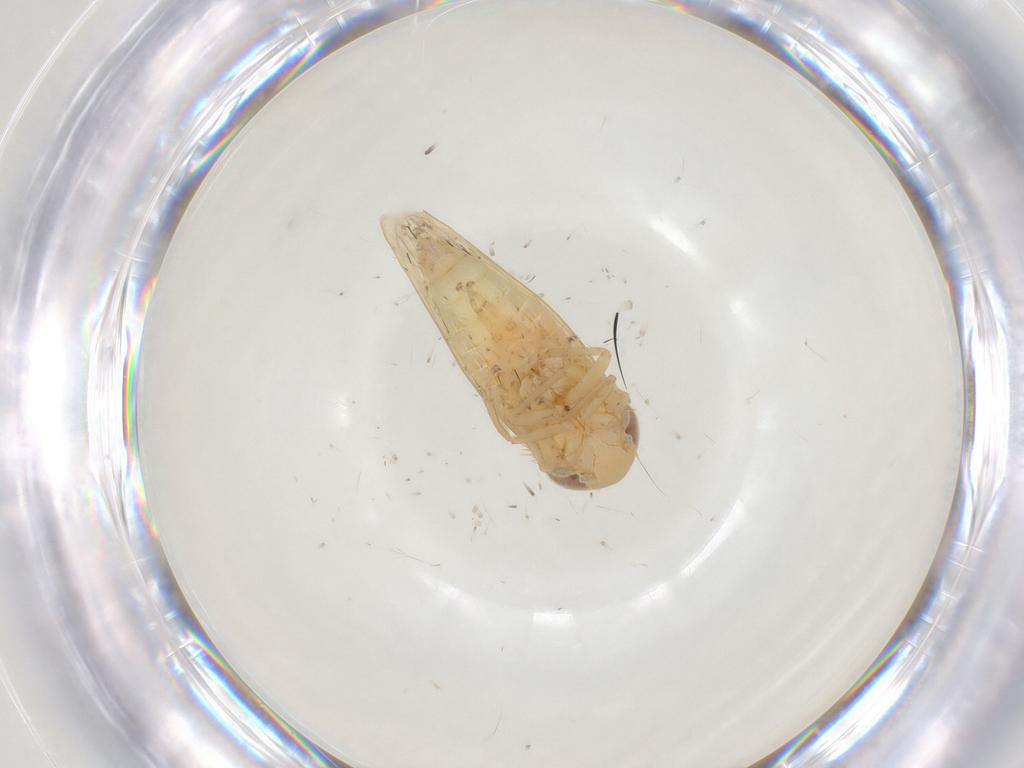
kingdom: Animalia
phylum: Arthropoda
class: Insecta
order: Hemiptera
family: Cicadellidae
